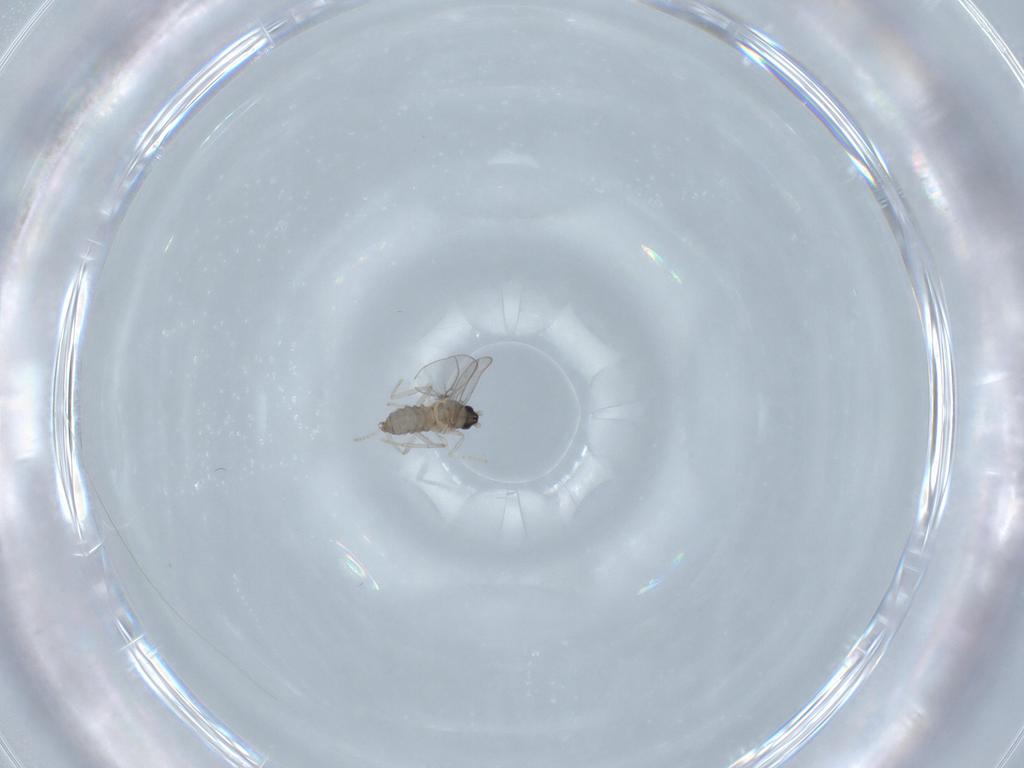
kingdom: Animalia
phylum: Arthropoda
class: Insecta
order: Diptera
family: Cecidomyiidae
